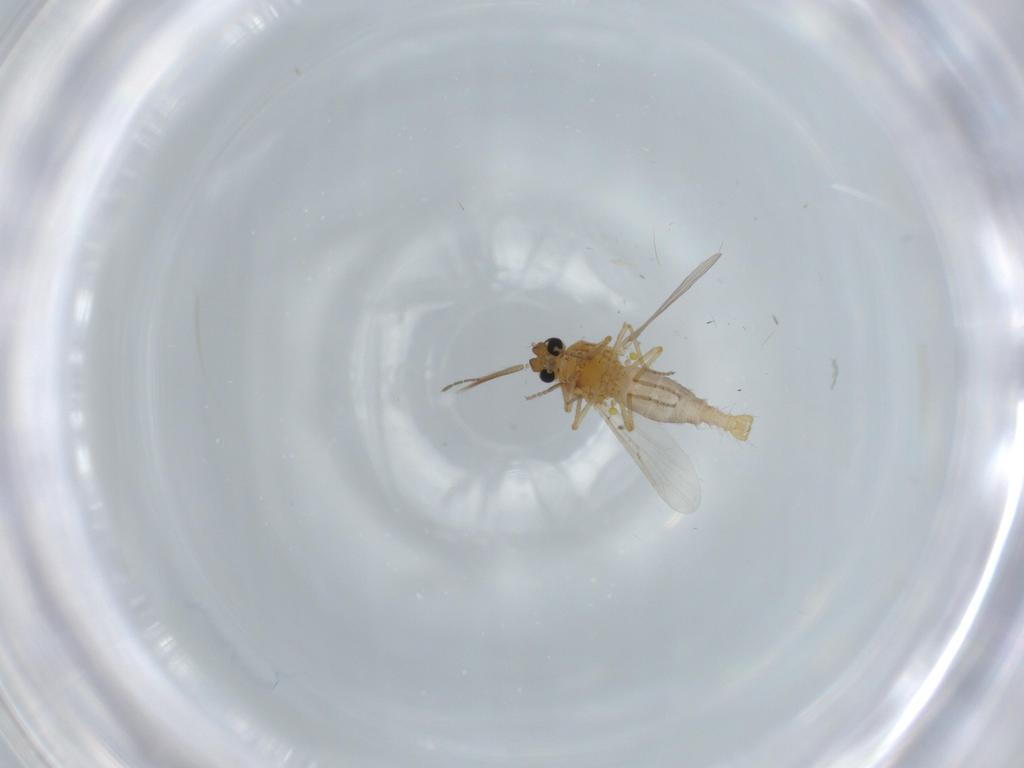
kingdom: Animalia
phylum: Arthropoda
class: Insecta
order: Diptera
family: Ceratopogonidae
